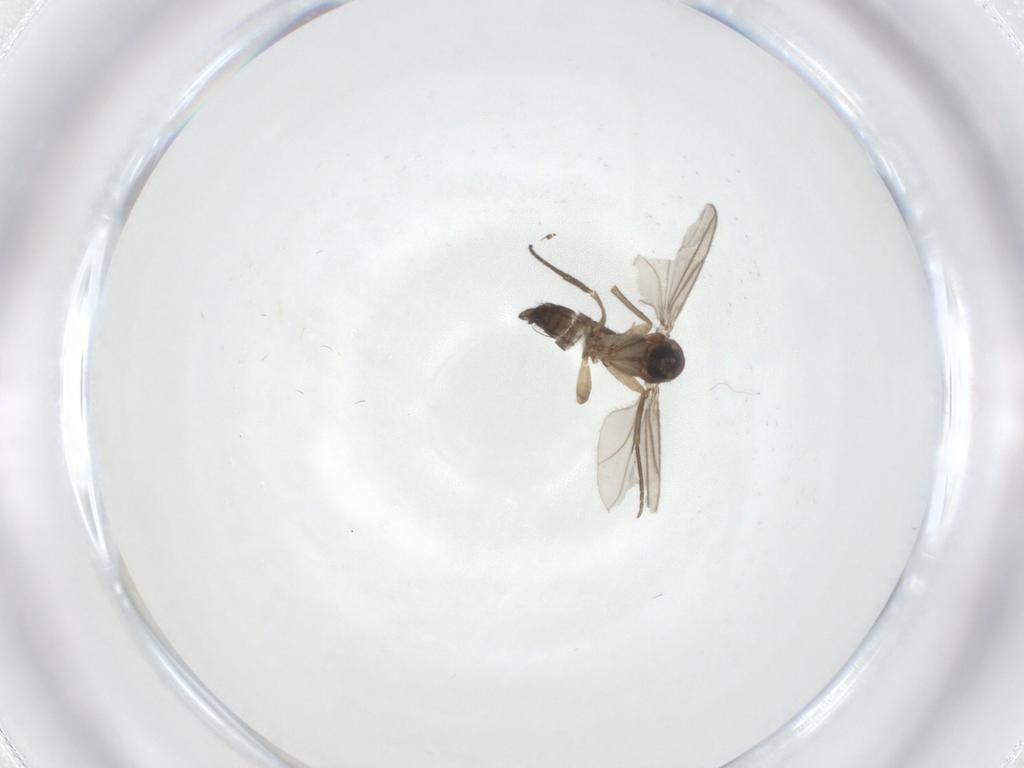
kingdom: Animalia
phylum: Arthropoda
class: Insecta
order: Diptera
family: Sciaridae
